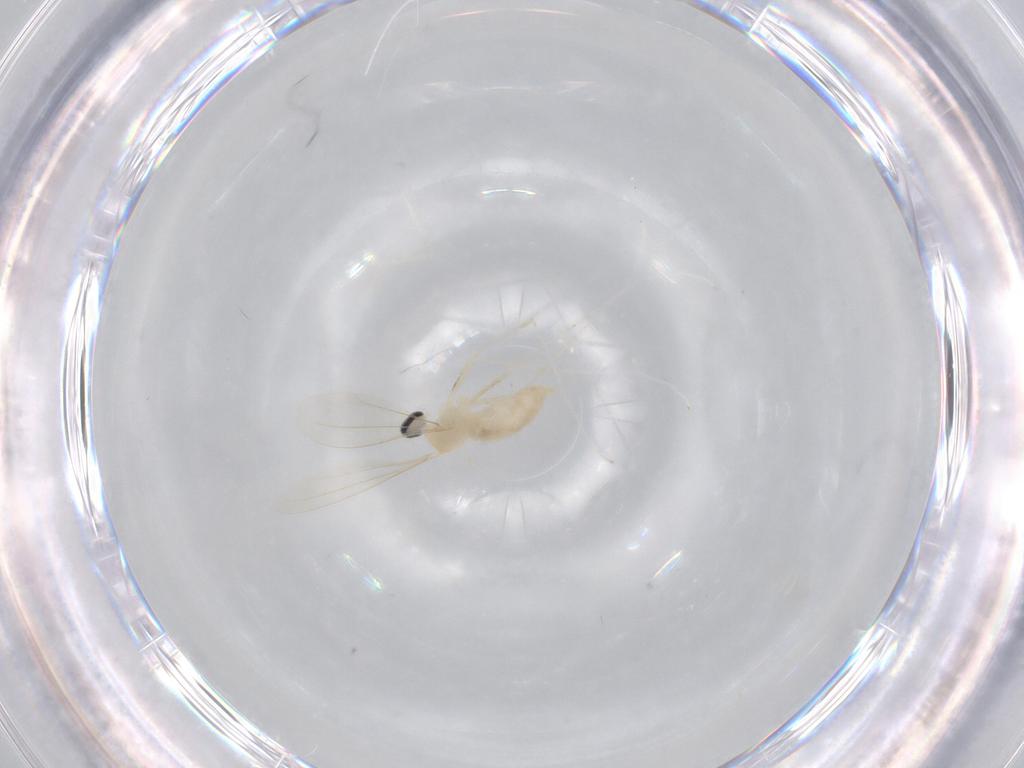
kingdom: Animalia
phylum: Arthropoda
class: Insecta
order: Diptera
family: Cecidomyiidae
